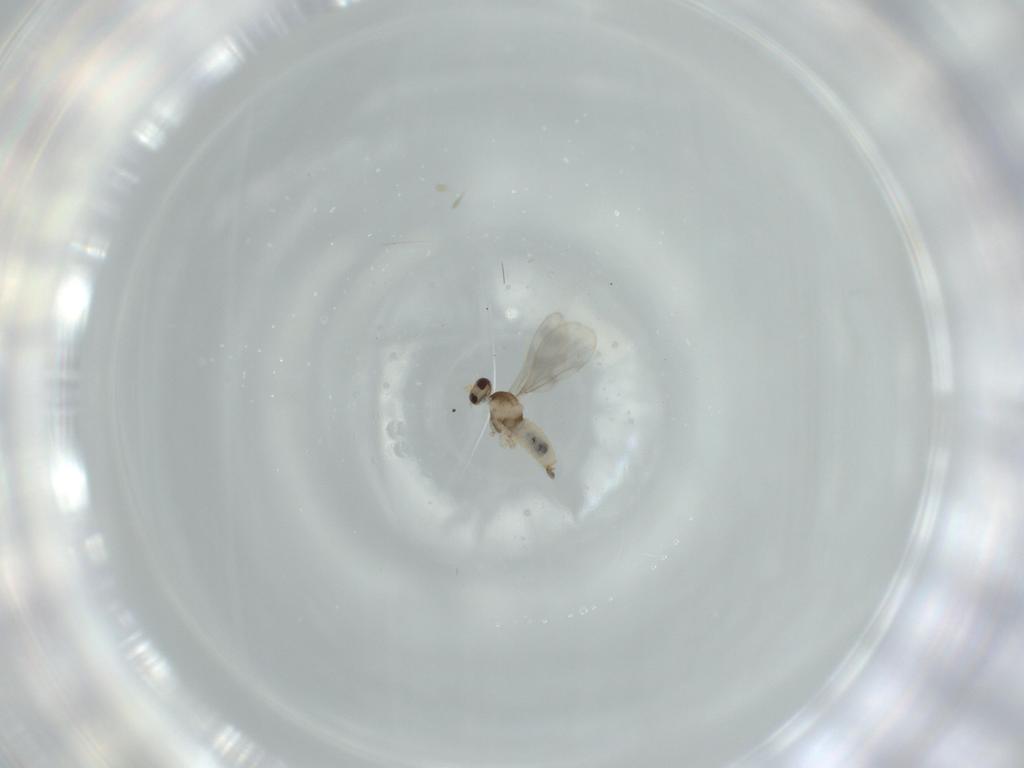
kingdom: Animalia
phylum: Arthropoda
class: Insecta
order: Diptera
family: Cecidomyiidae
